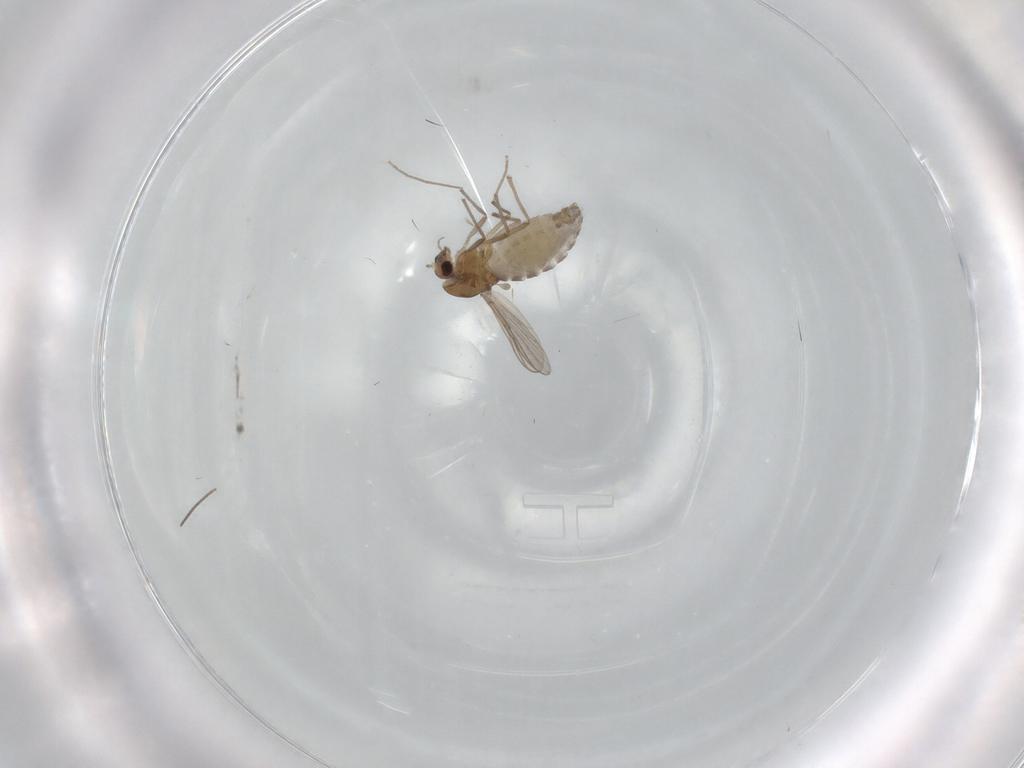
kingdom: Animalia
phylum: Arthropoda
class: Insecta
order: Diptera
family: Chironomidae
